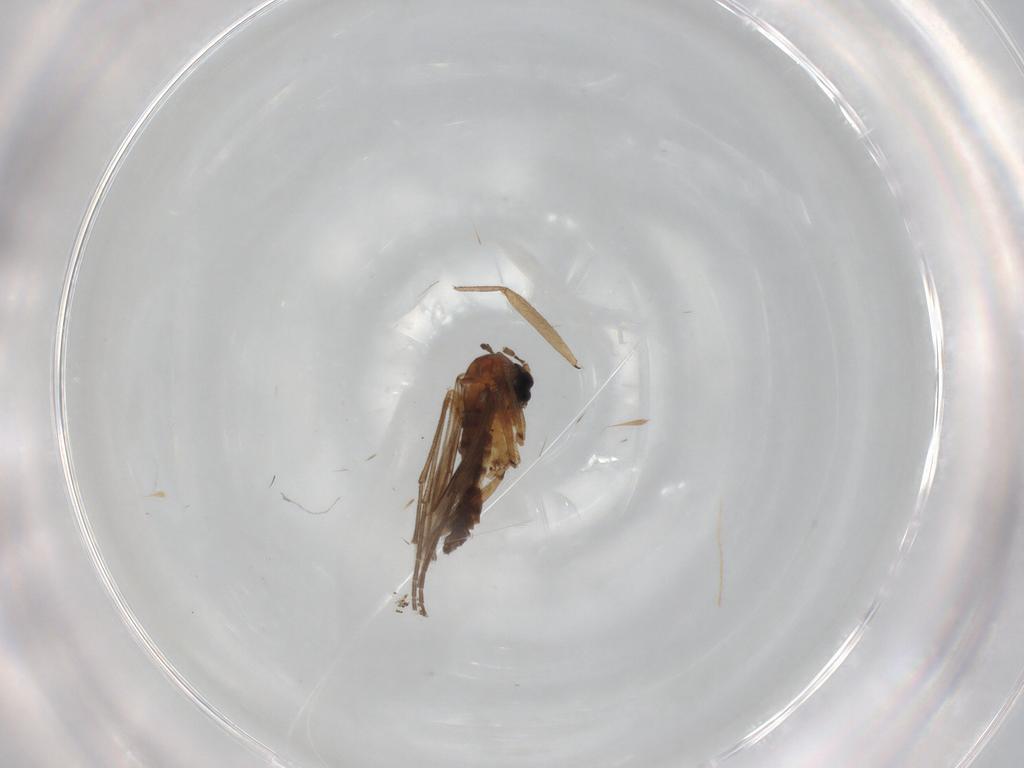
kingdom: Animalia
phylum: Arthropoda
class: Insecta
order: Diptera
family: Sciaridae
